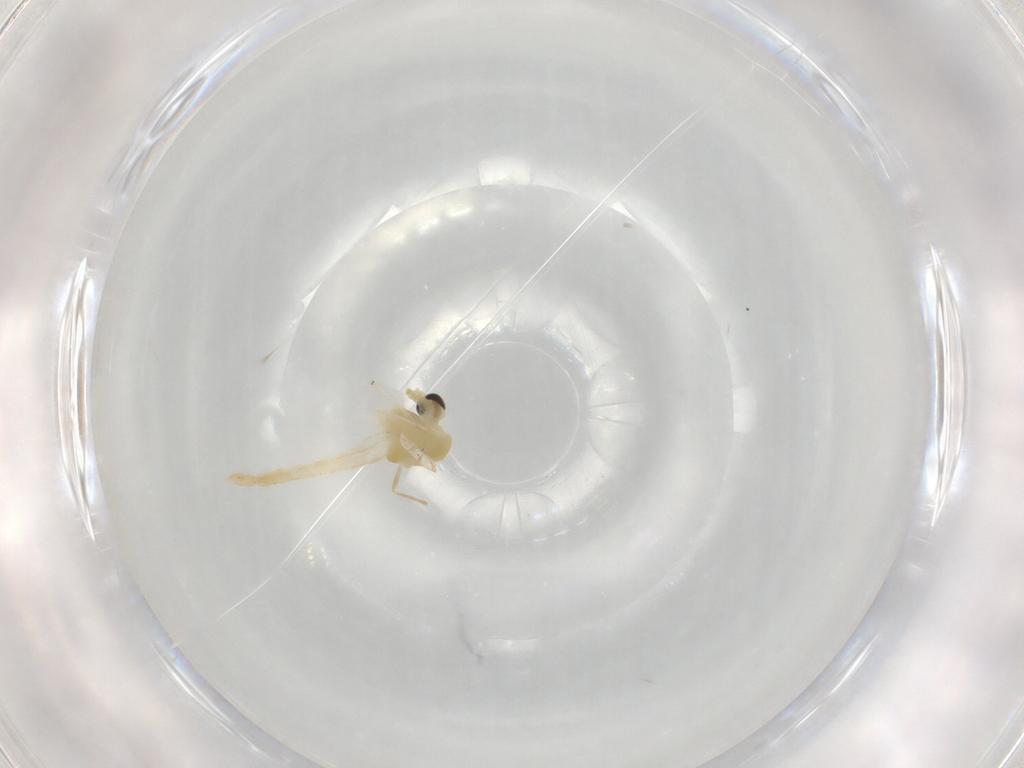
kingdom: Animalia
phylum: Arthropoda
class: Insecta
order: Diptera
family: Chironomidae
